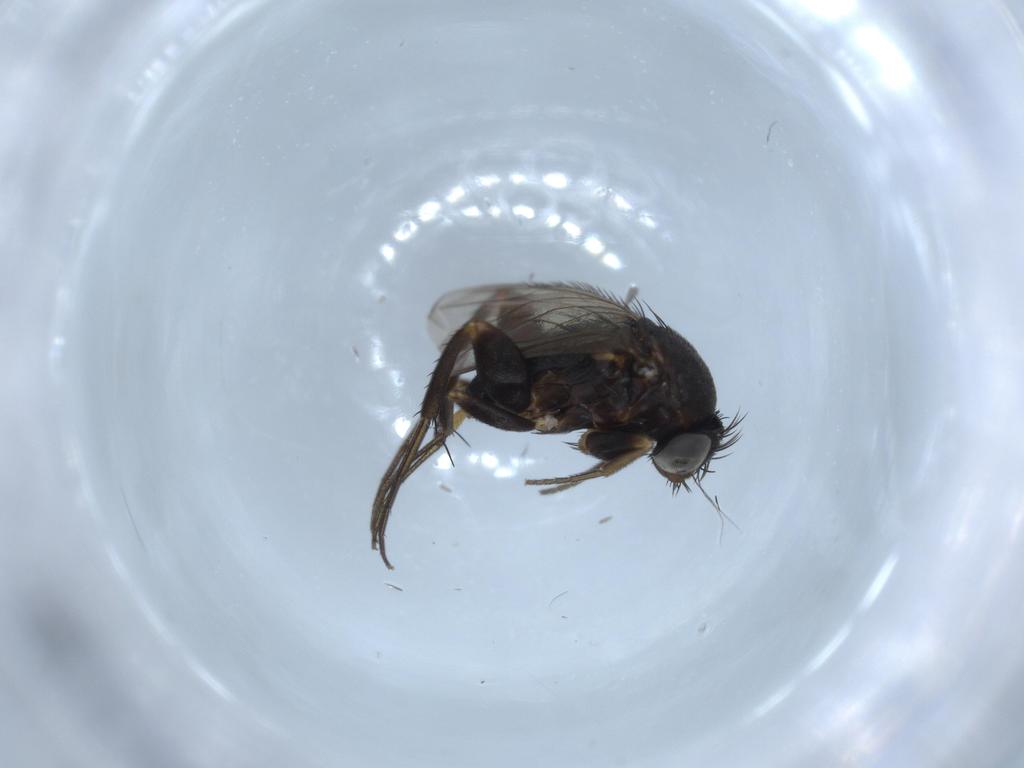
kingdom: Animalia
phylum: Arthropoda
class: Insecta
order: Diptera
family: Phoridae
